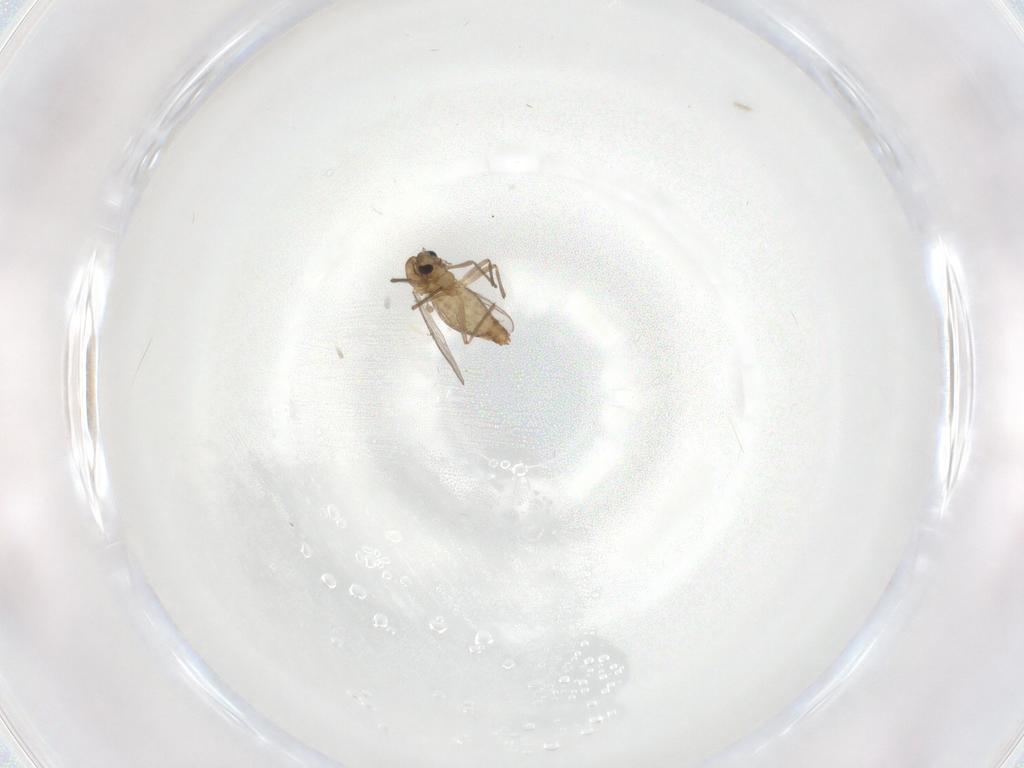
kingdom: Animalia
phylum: Arthropoda
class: Insecta
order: Diptera
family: Chironomidae
